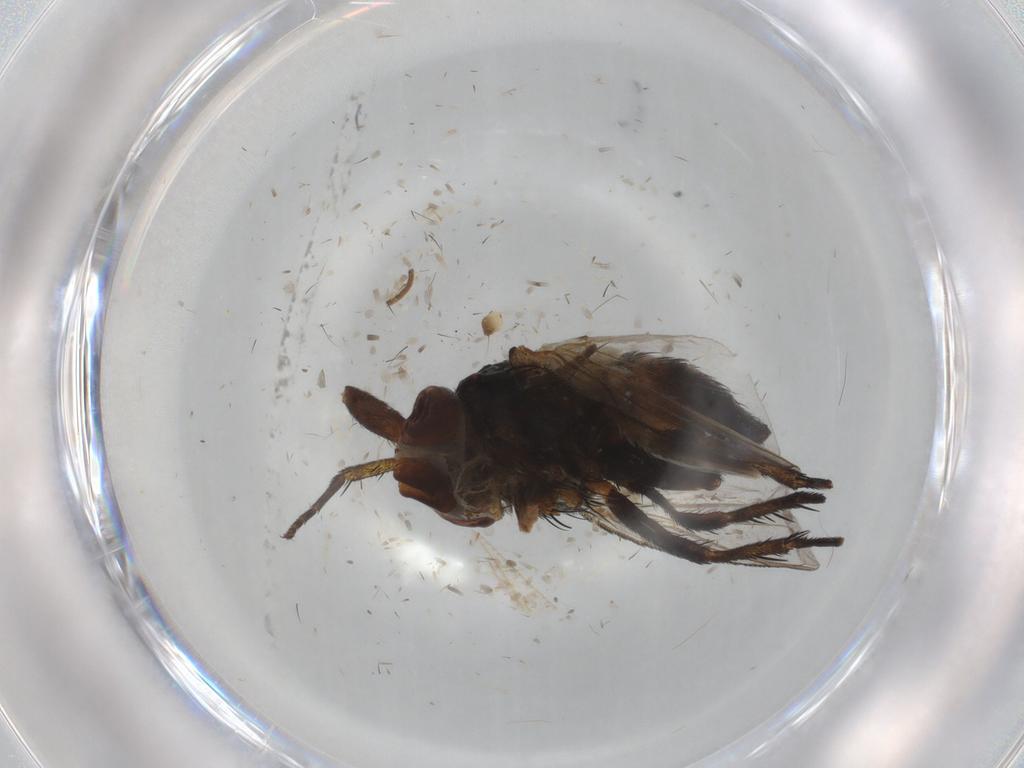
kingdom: Animalia
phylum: Arthropoda
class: Insecta
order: Diptera
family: Glossinidae
